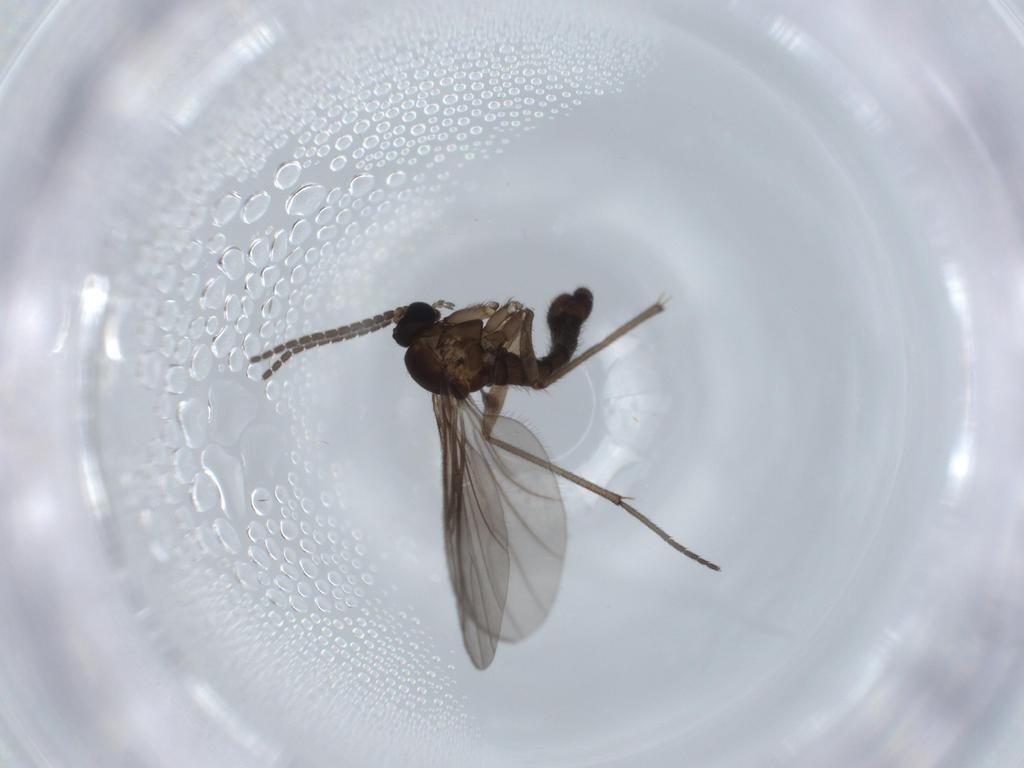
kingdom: Animalia
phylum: Arthropoda
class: Insecta
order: Diptera
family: Sciaridae
